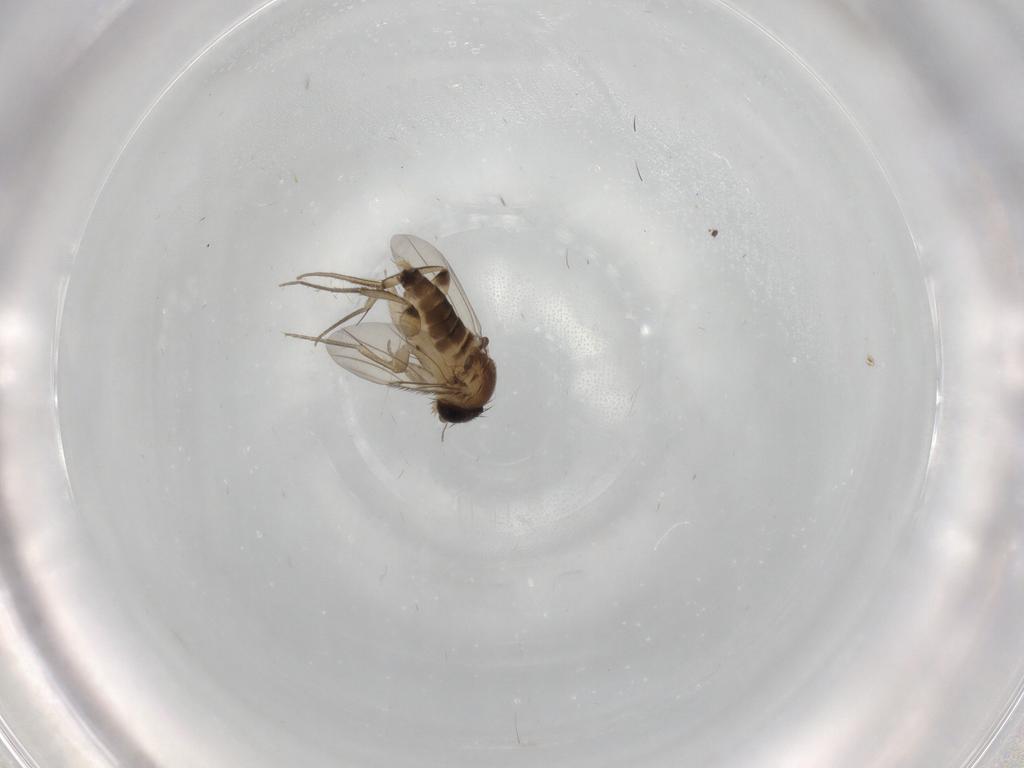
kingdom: Animalia
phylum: Arthropoda
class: Insecta
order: Diptera
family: Phoridae
